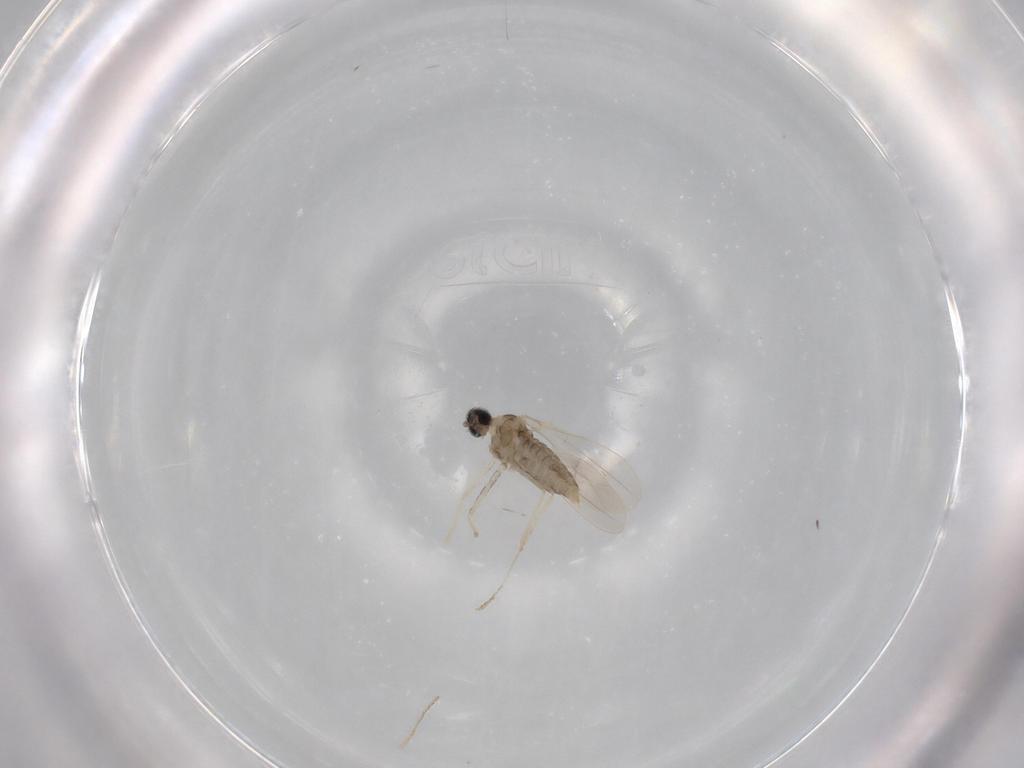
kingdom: Animalia
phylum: Arthropoda
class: Insecta
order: Diptera
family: Cecidomyiidae
